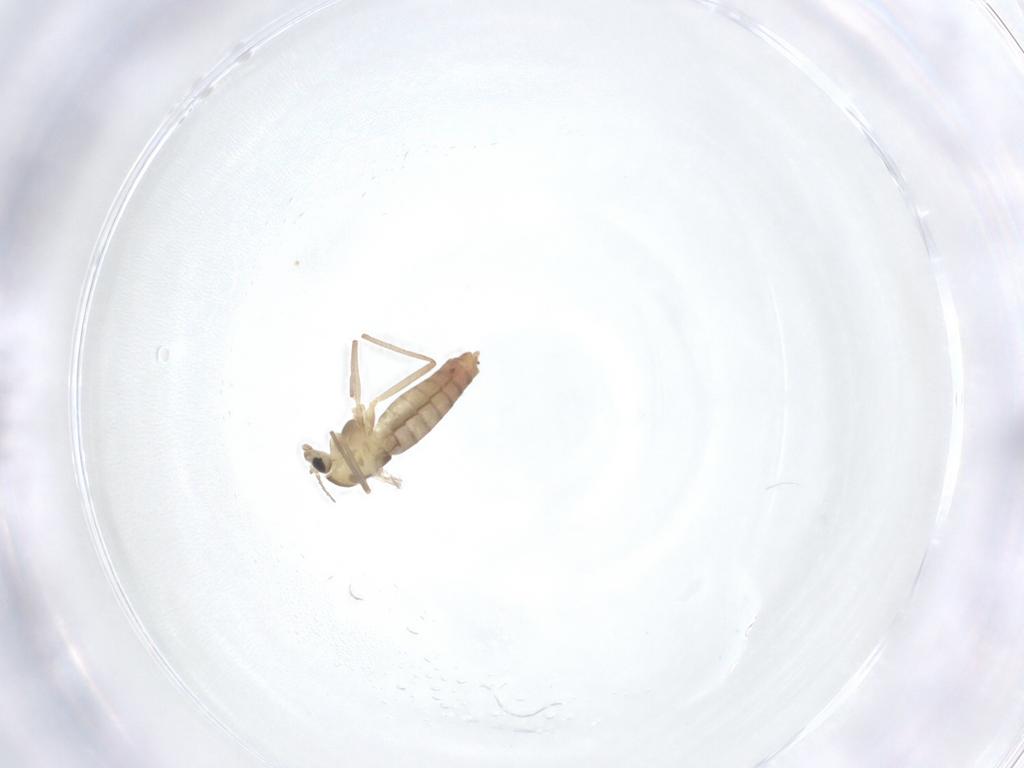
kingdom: Animalia
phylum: Arthropoda
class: Insecta
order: Diptera
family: Chironomidae
